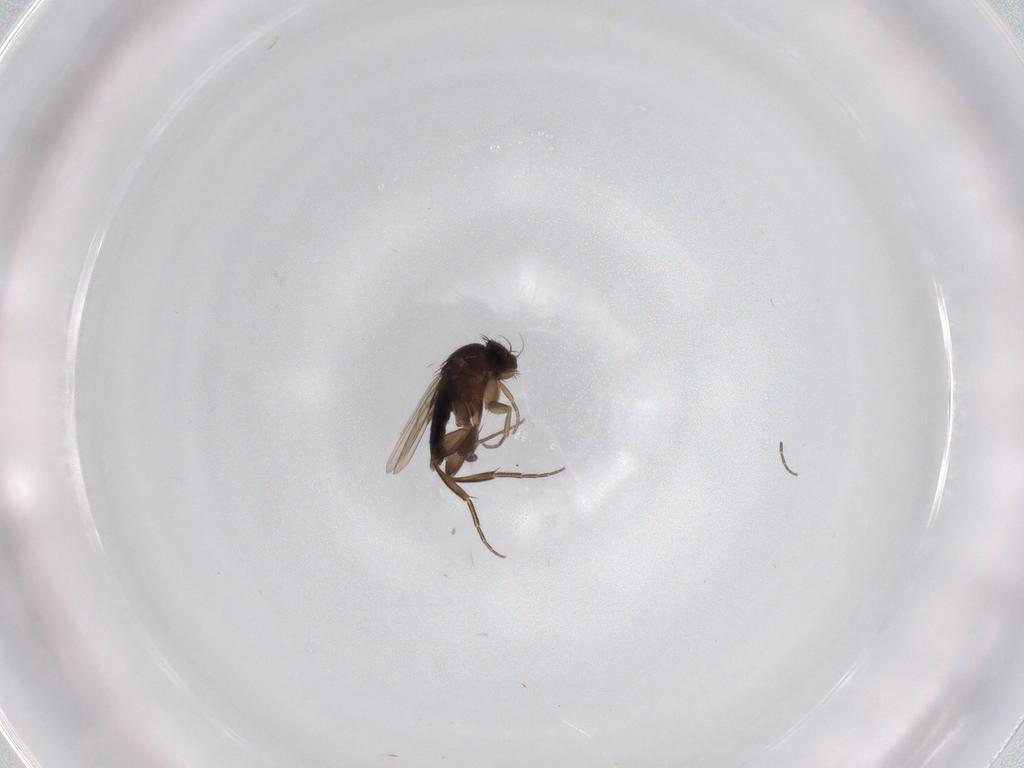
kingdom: Animalia
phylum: Arthropoda
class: Insecta
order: Diptera
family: Phoridae
